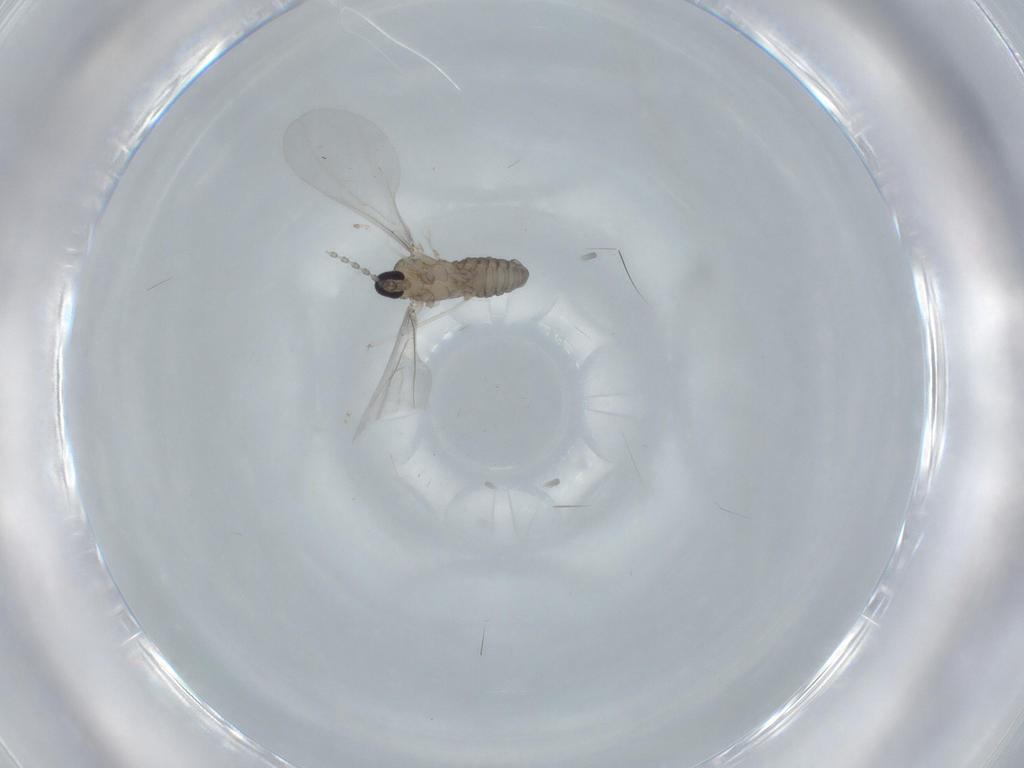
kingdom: Animalia
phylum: Arthropoda
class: Insecta
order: Diptera
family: Cecidomyiidae
